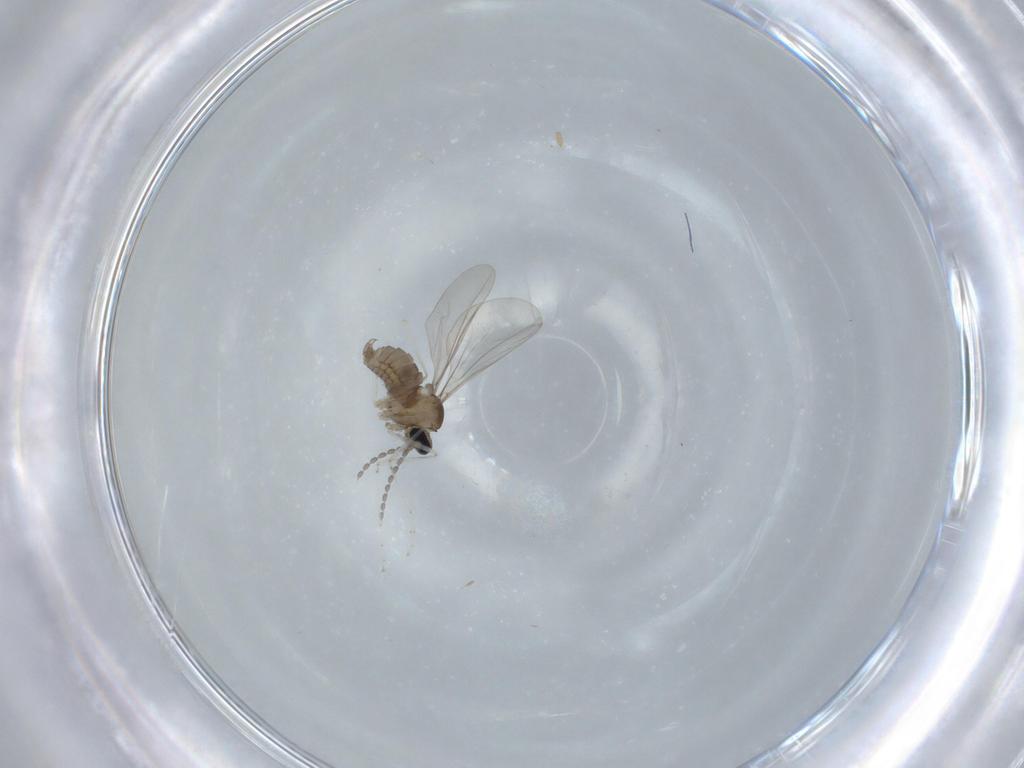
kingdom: Animalia
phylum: Arthropoda
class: Insecta
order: Diptera
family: Cecidomyiidae
